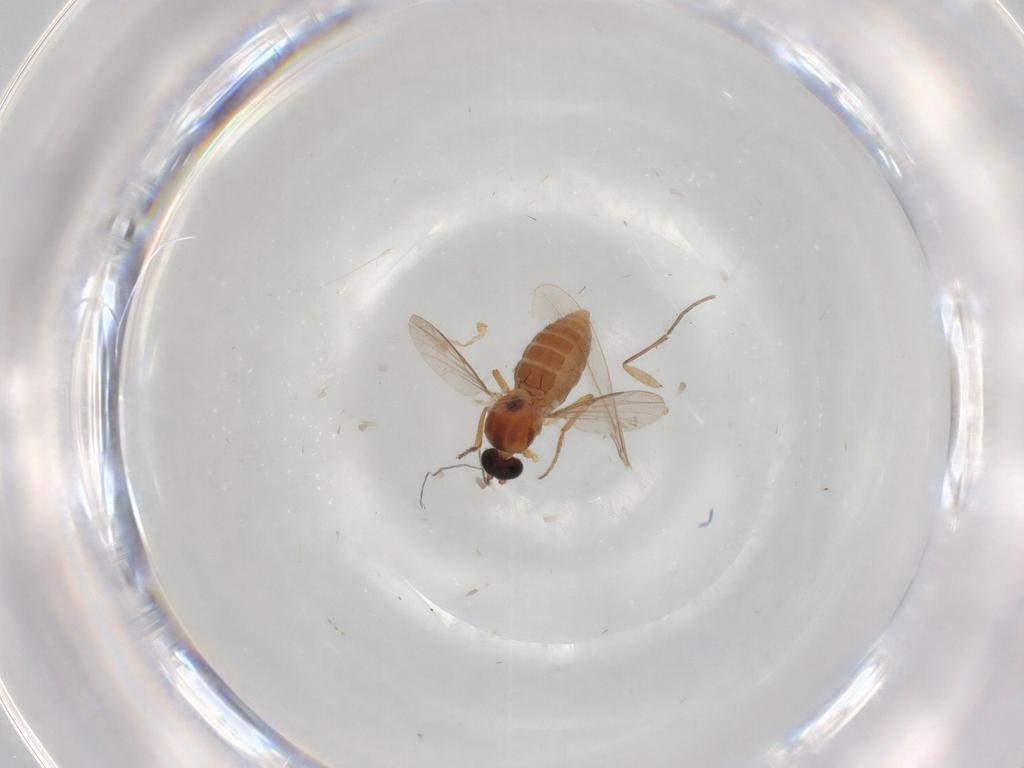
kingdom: Animalia
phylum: Arthropoda
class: Insecta
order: Diptera
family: Cecidomyiidae
